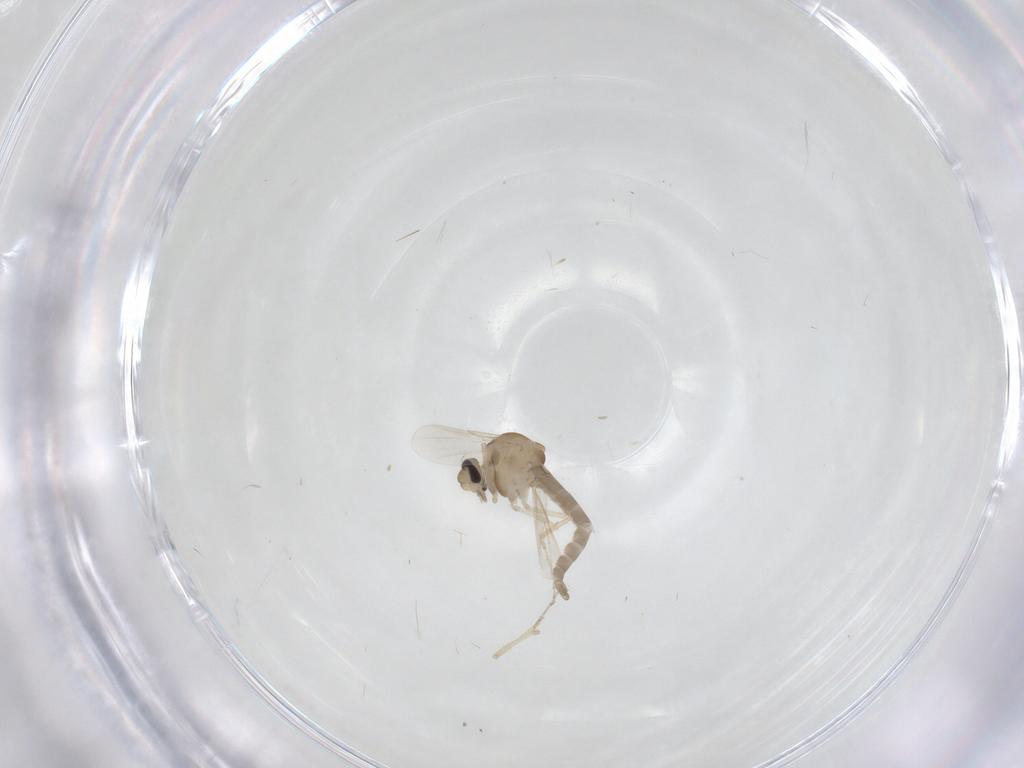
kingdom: Animalia
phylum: Arthropoda
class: Insecta
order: Diptera
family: Ceratopogonidae
